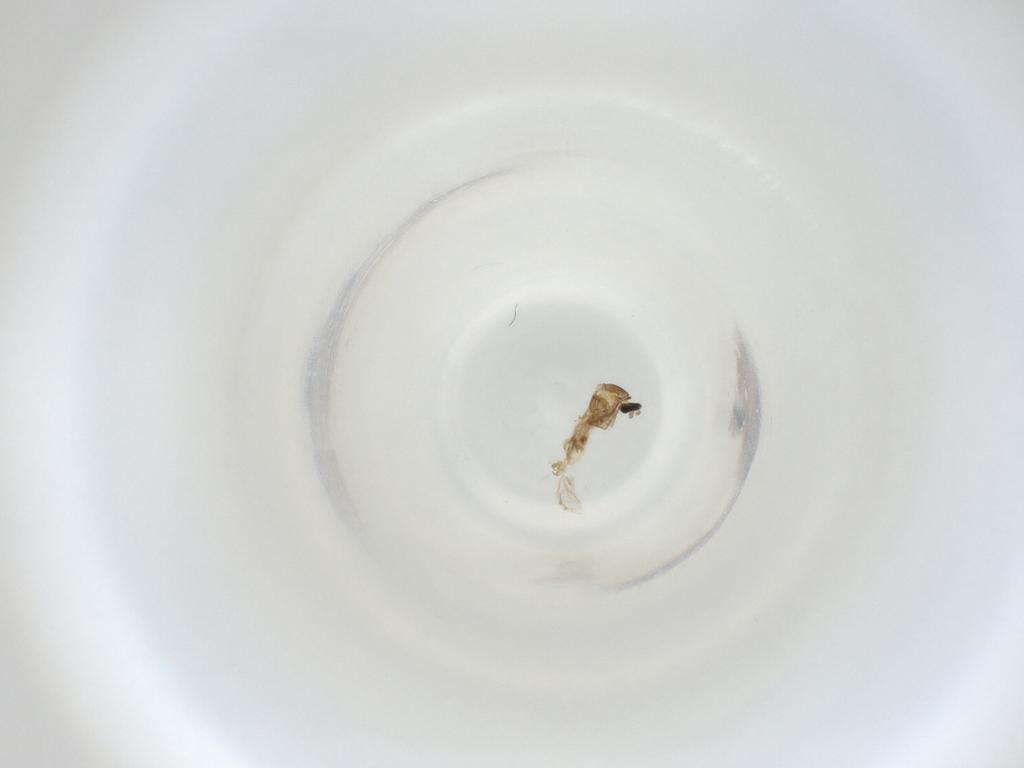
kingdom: Animalia
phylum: Arthropoda
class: Insecta
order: Diptera
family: Cecidomyiidae
